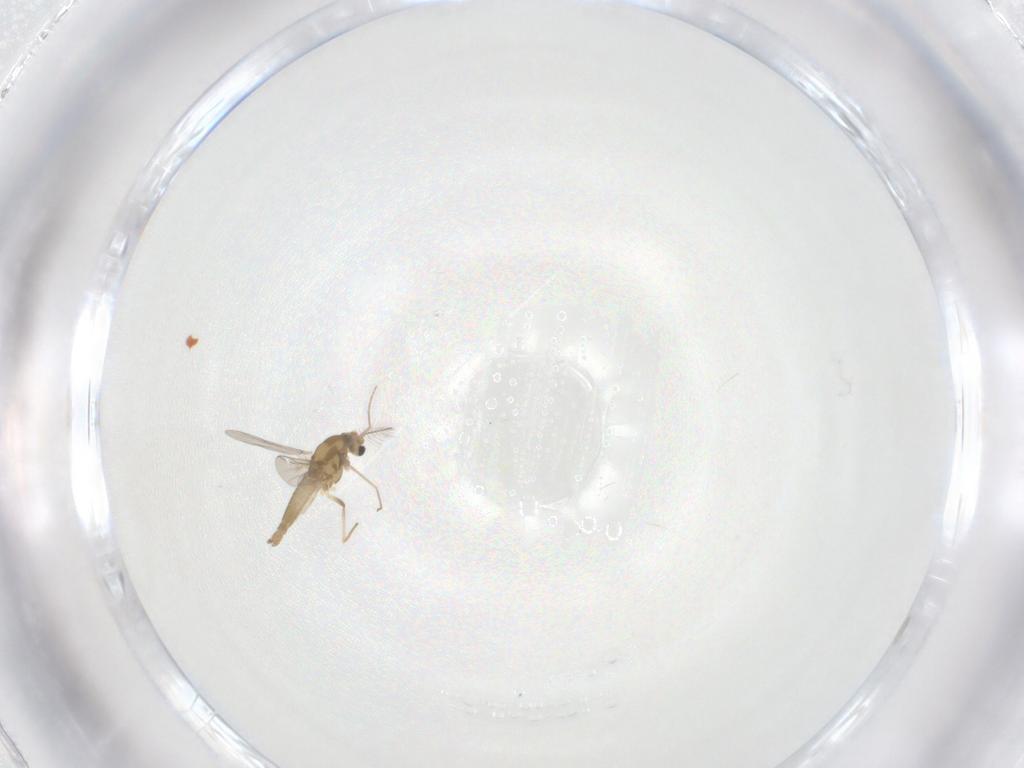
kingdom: Animalia
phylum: Arthropoda
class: Insecta
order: Diptera
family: Chironomidae
